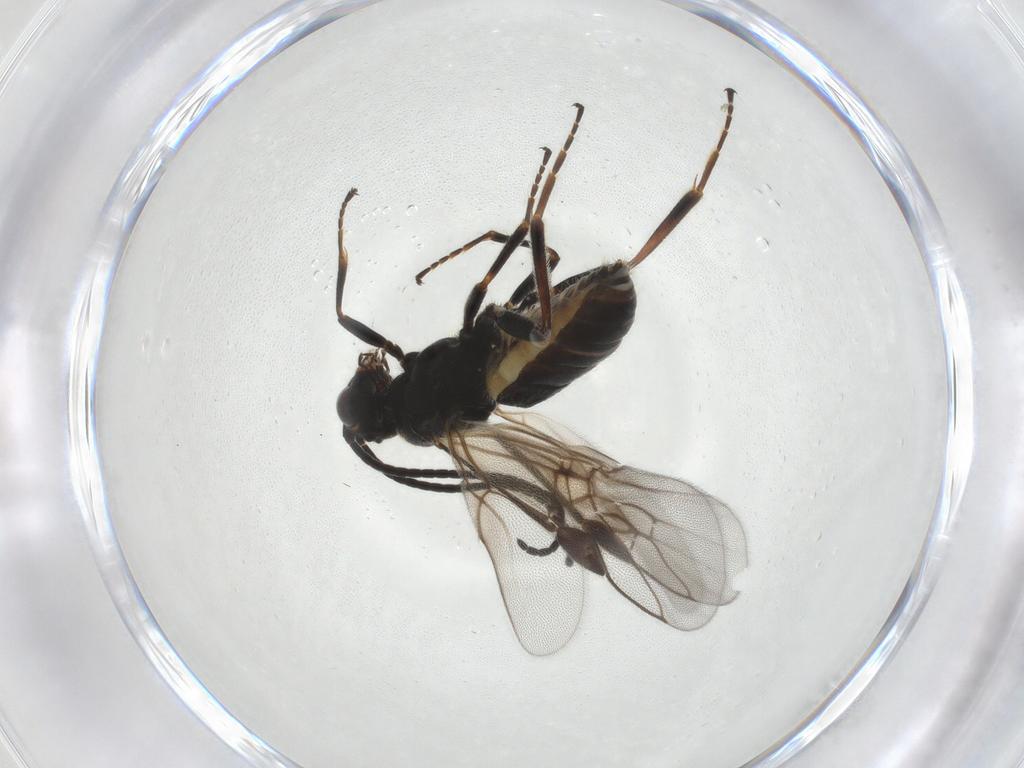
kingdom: Animalia
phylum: Arthropoda
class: Insecta
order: Hymenoptera
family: Braconidae
